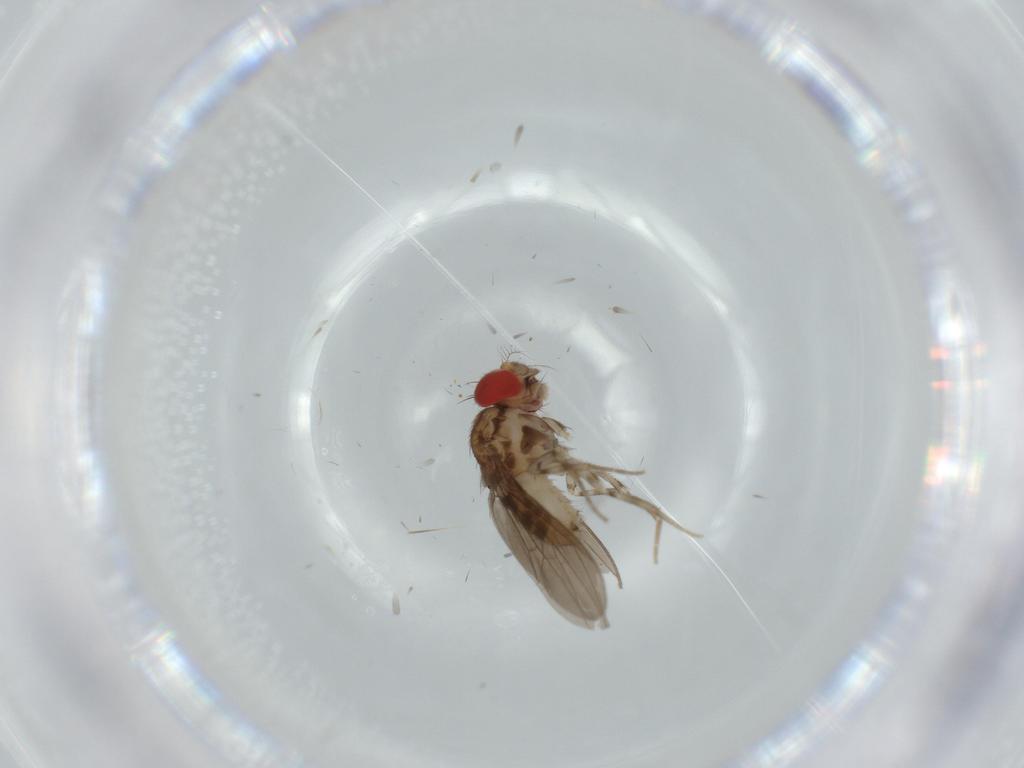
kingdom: Animalia
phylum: Arthropoda
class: Insecta
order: Diptera
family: Drosophilidae
